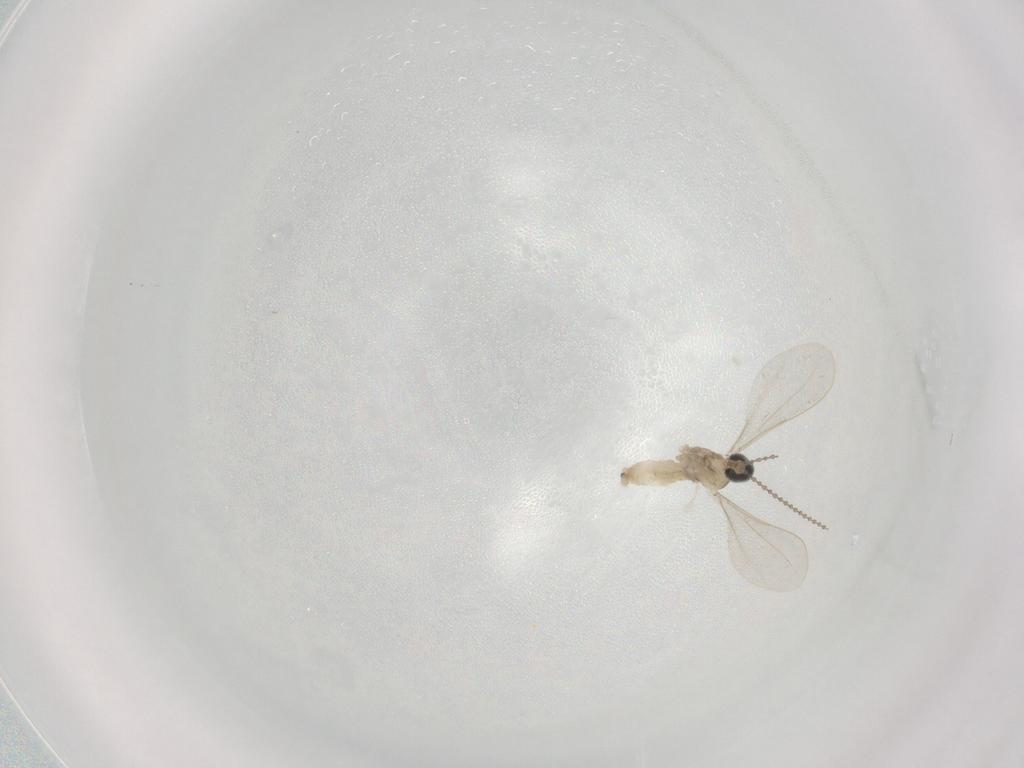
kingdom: Animalia
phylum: Arthropoda
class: Insecta
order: Diptera
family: Cecidomyiidae
